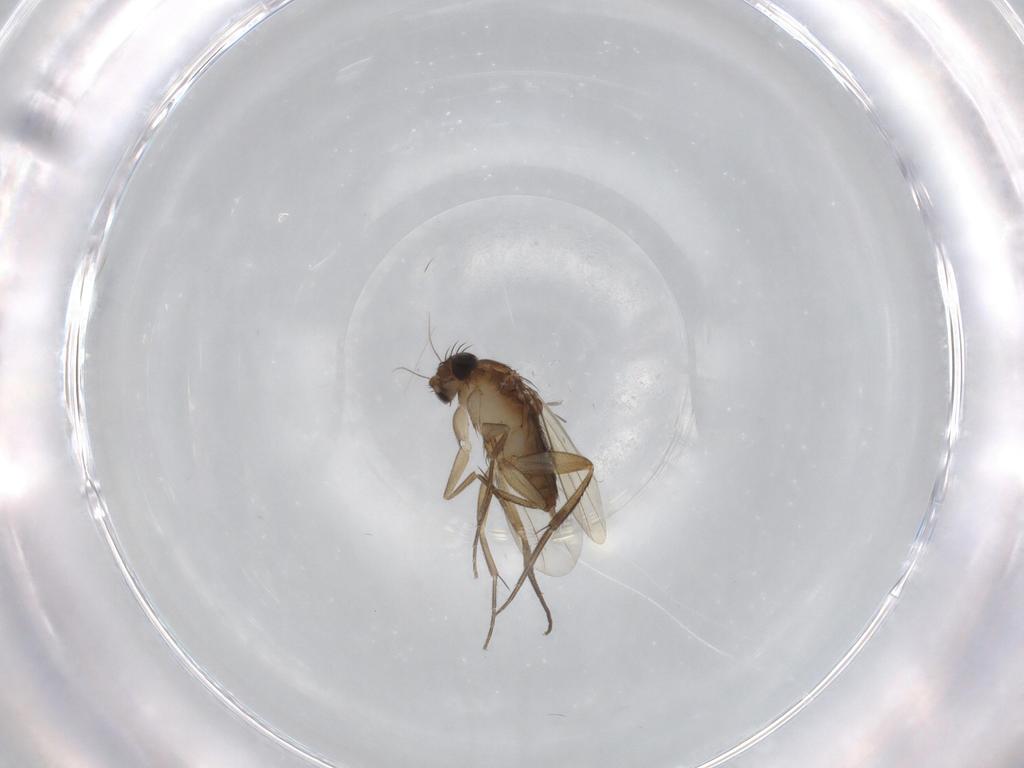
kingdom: Animalia
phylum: Arthropoda
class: Insecta
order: Diptera
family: Phoridae
